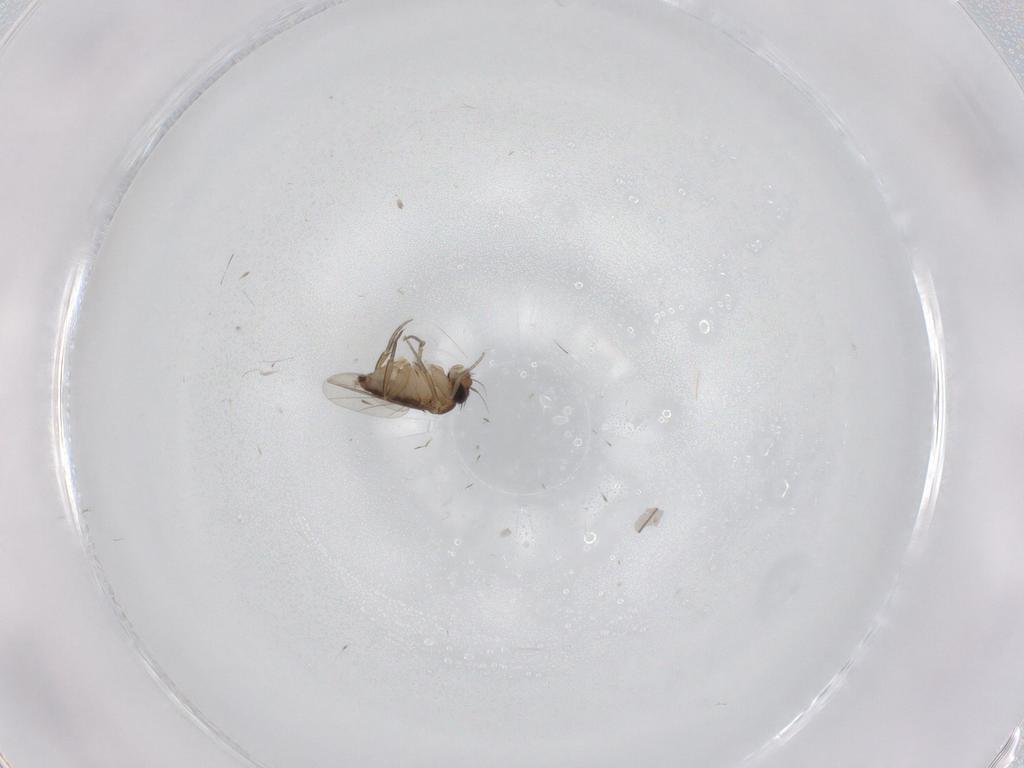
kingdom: Animalia
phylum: Arthropoda
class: Insecta
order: Diptera
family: Phoridae
